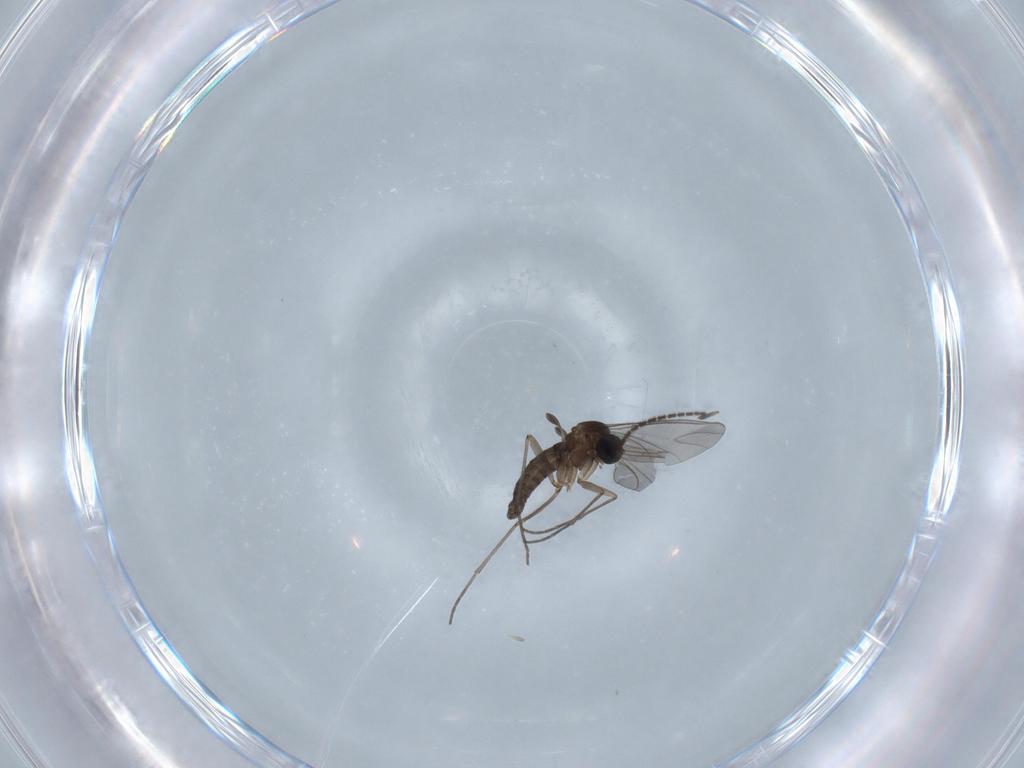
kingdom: Animalia
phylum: Arthropoda
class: Insecta
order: Diptera
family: Sciaridae
